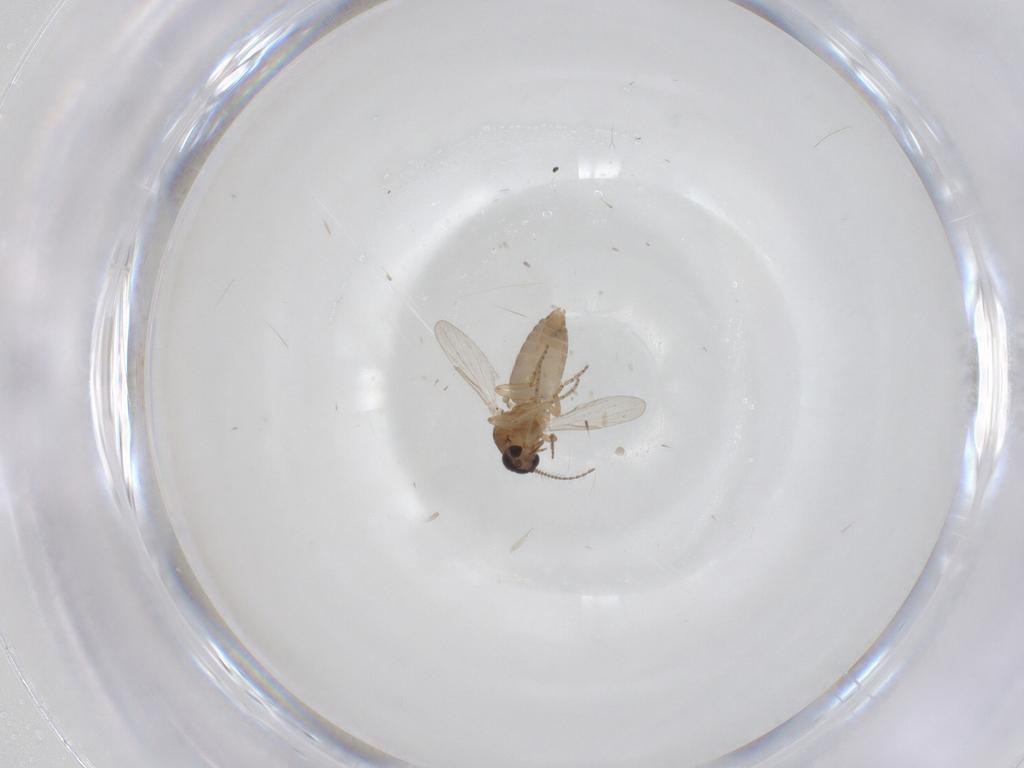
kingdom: Animalia
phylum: Arthropoda
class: Insecta
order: Diptera
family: Ceratopogonidae
